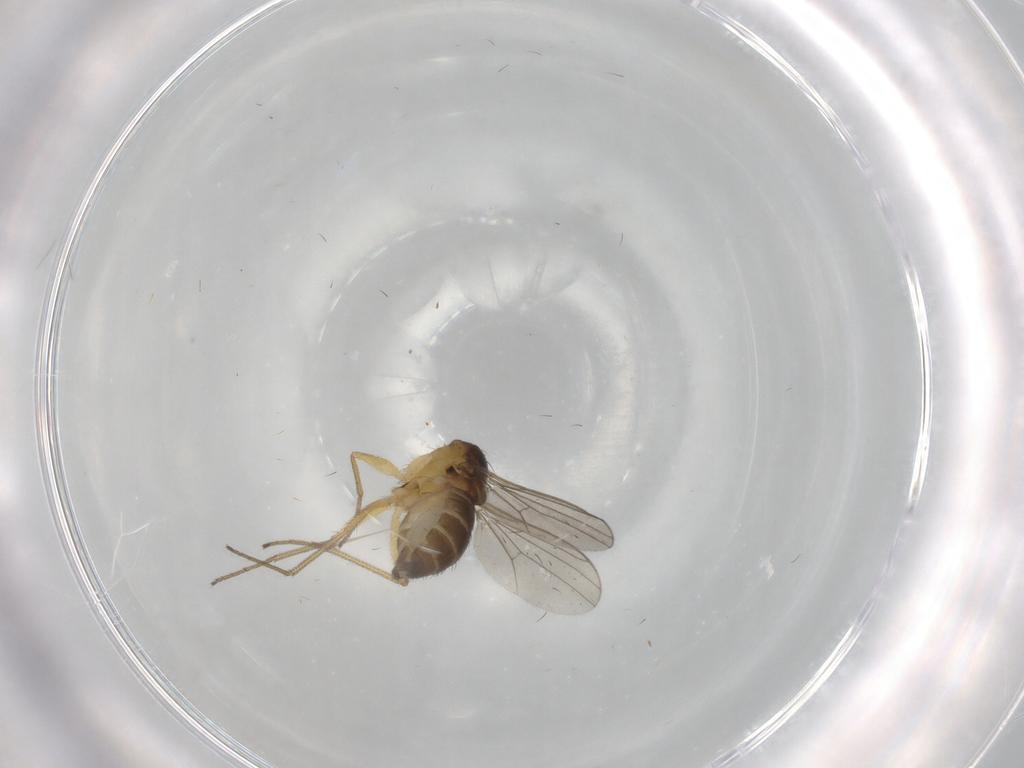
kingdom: Animalia
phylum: Arthropoda
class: Insecta
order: Diptera
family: Dolichopodidae
